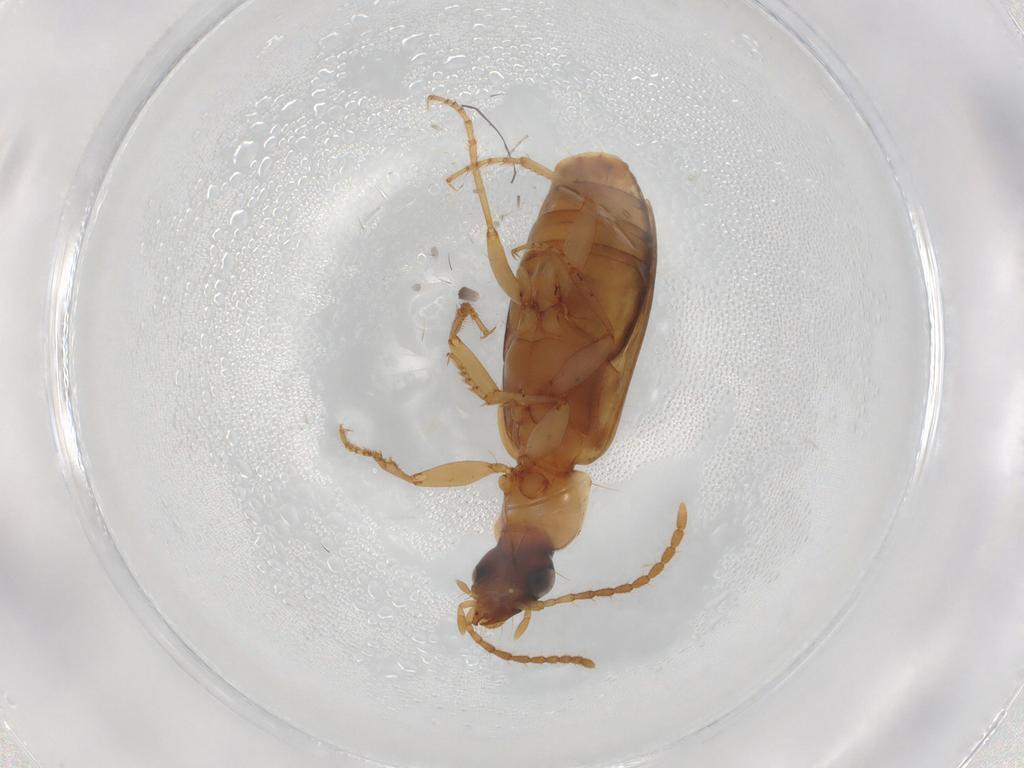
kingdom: Animalia
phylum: Arthropoda
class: Insecta
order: Coleoptera
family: Carabidae
